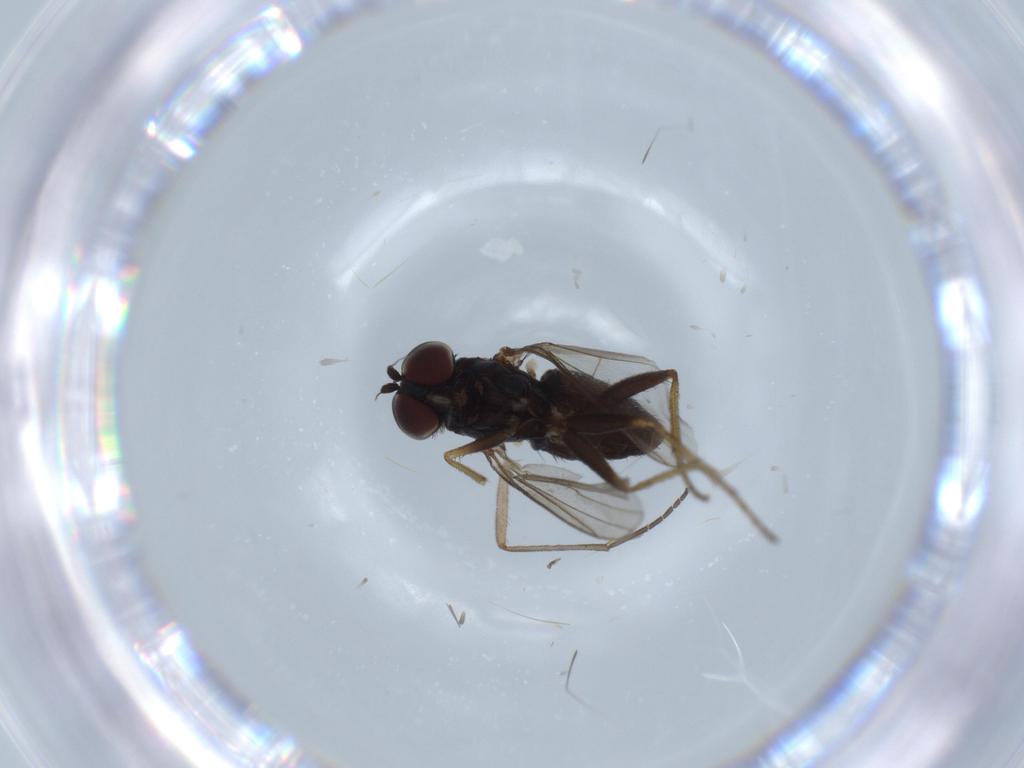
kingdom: Animalia
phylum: Arthropoda
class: Insecta
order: Diptera
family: Dolichopodidae
